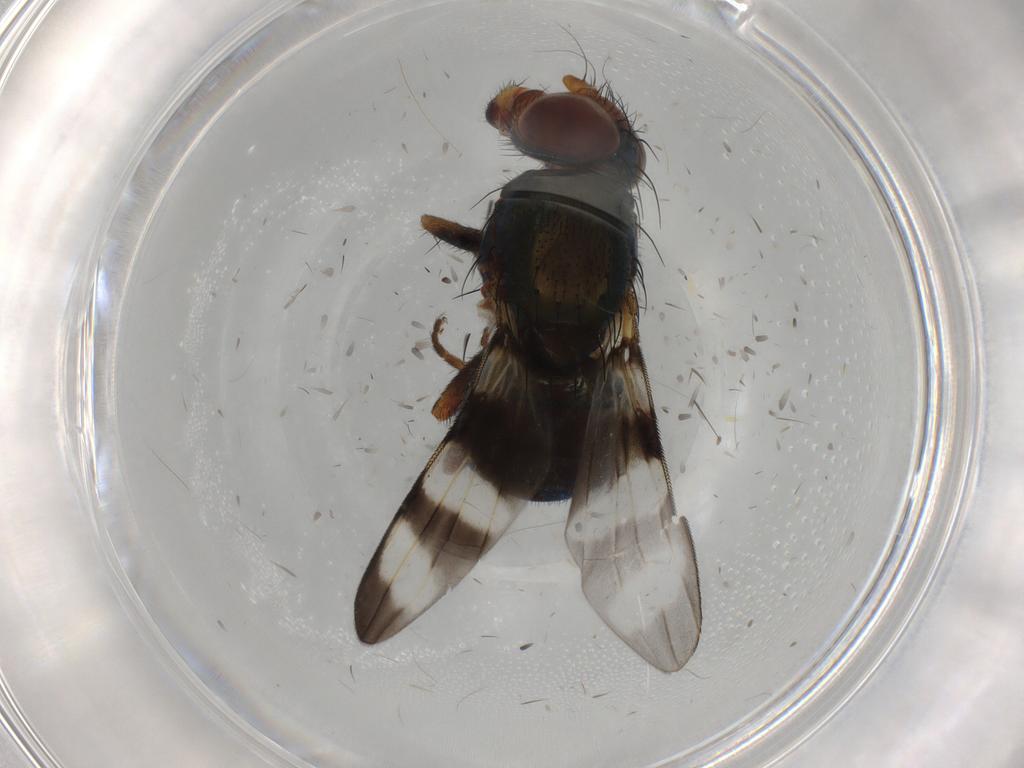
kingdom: Animalia
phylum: Arthropoda
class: Insecta
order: Diptera
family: Ulidiidae
